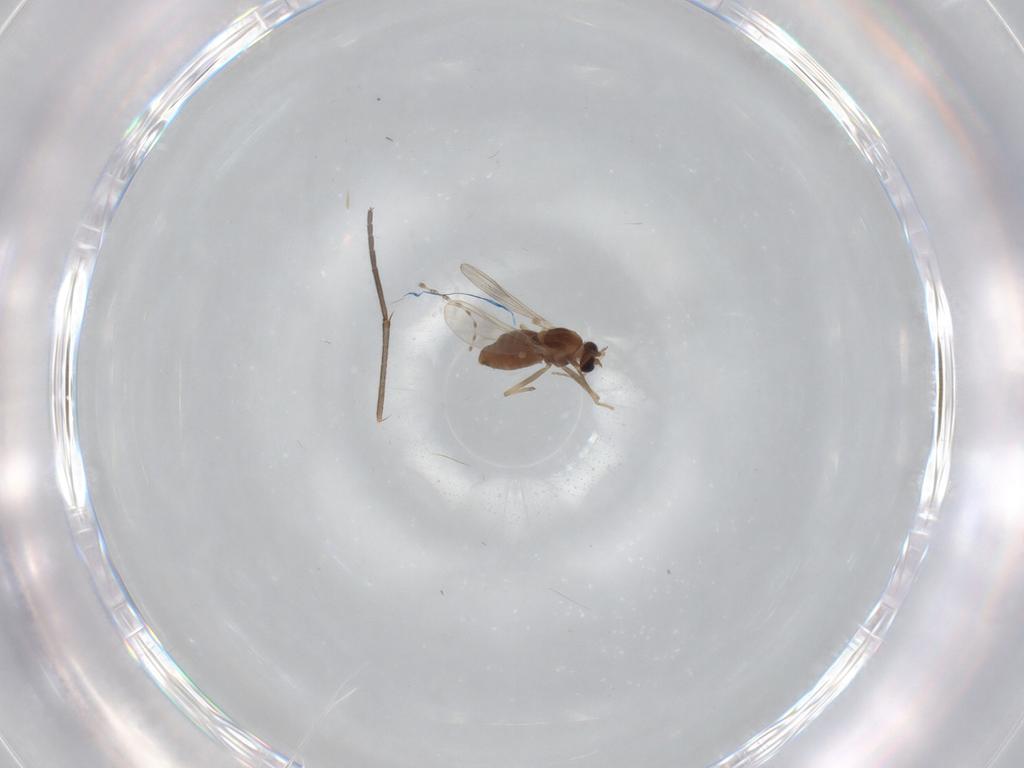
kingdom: Animalia
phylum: Arthropoda
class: Insecta
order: Diptera
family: Chironomidae
